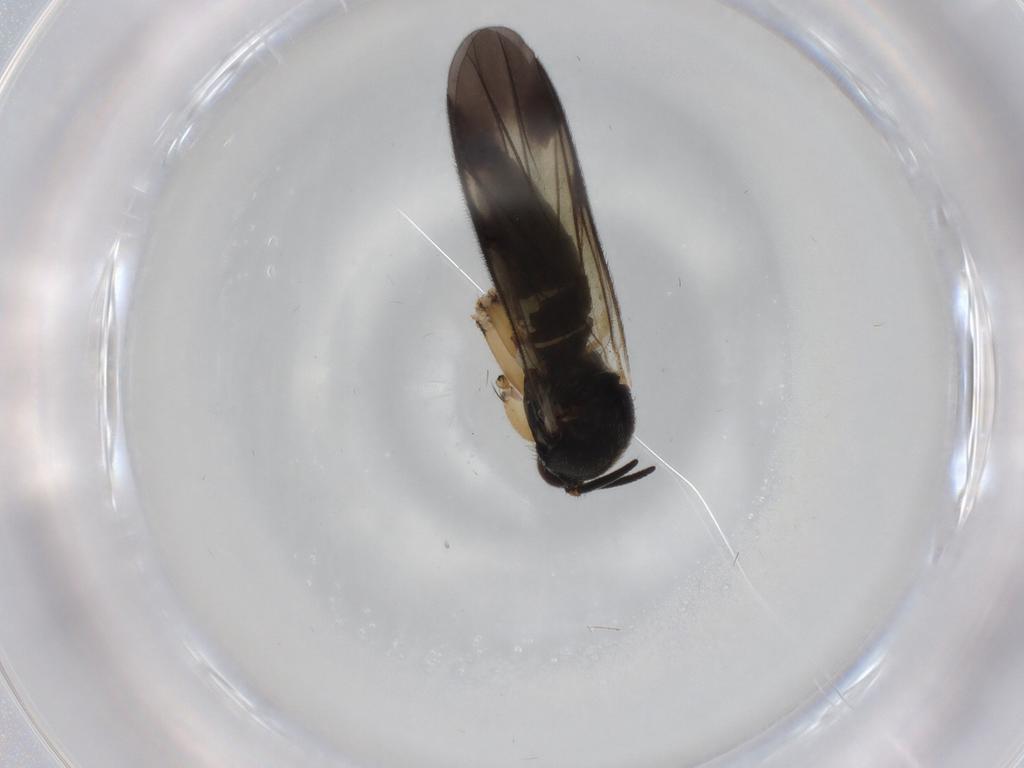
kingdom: Animalia
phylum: Arthropoda
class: Insecta
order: Diptera
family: Mycetophilidae
